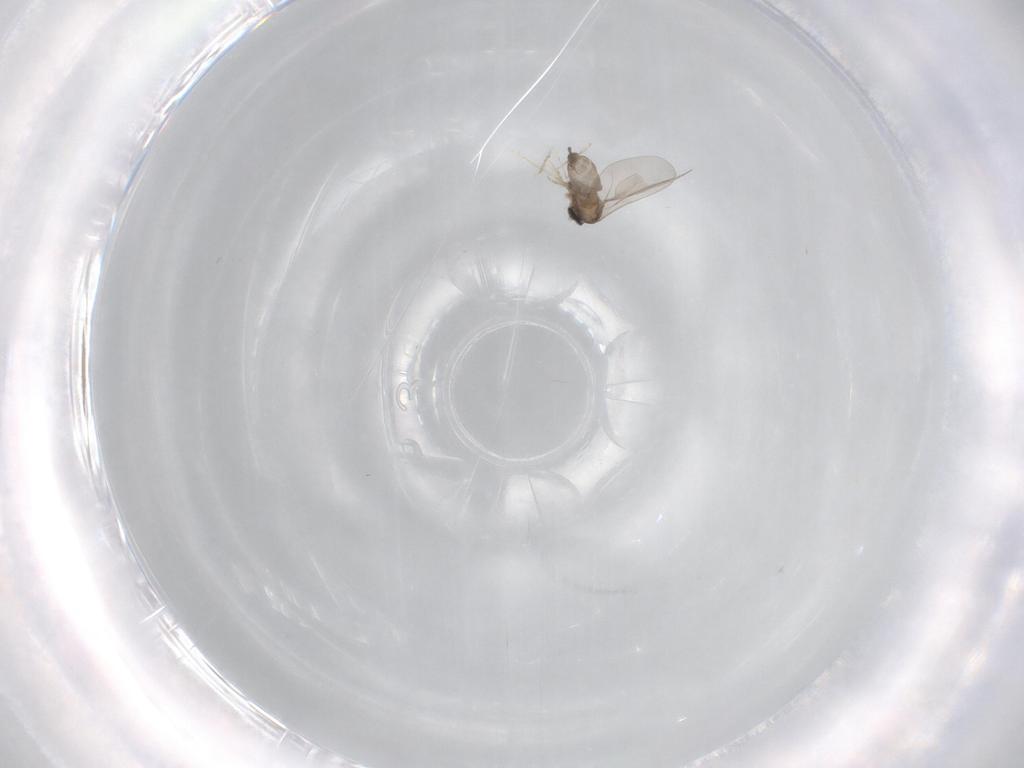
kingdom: Animalia
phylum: Arthropoda
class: Insecta
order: Diptera
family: Cecidomyiidae
